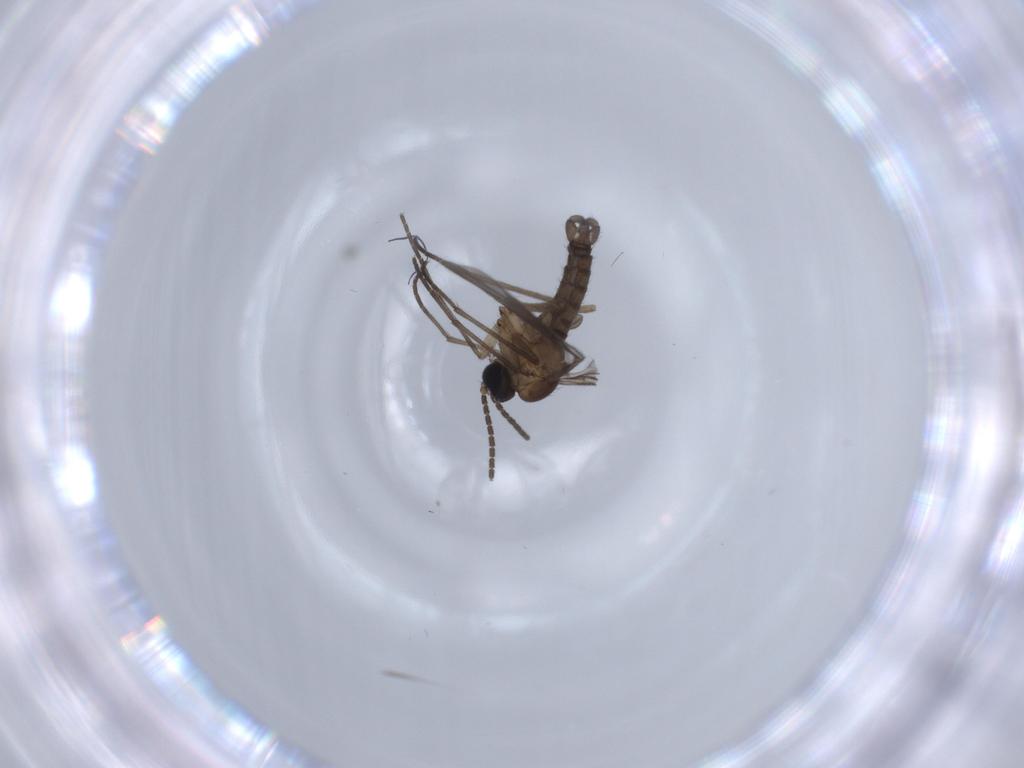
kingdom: Animalia
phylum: Arthropoda
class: Insecta
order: Diptera
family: Sciaridae
